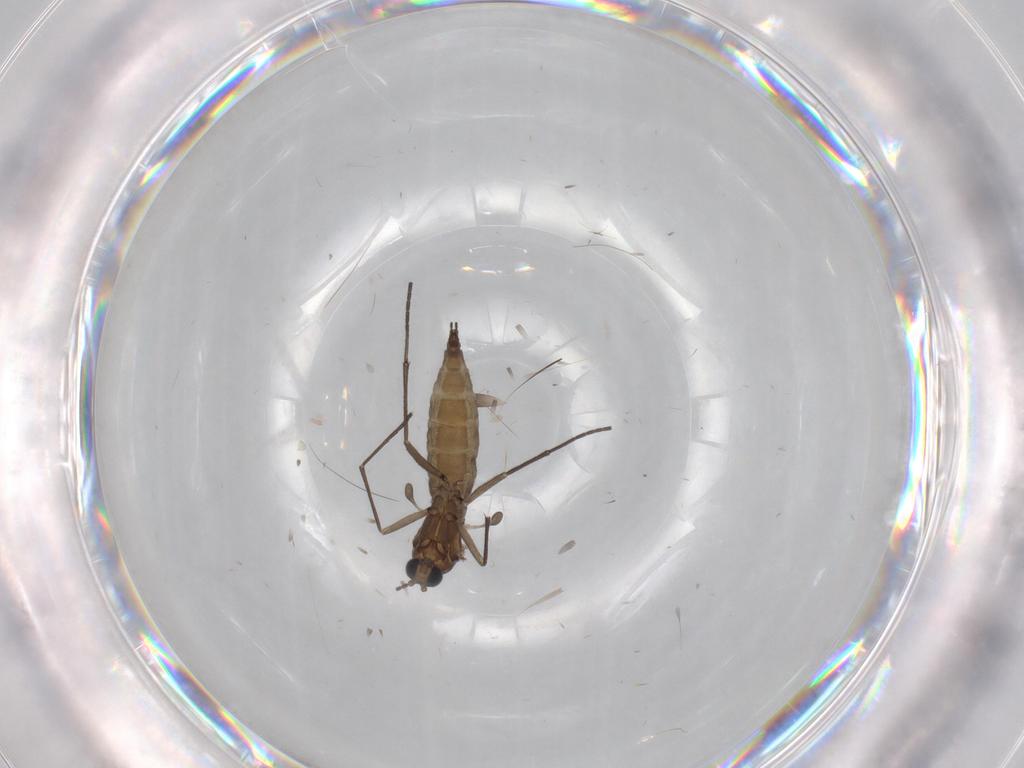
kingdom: Animalia
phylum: Arthropoda
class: Insecta
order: Diptera
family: Sciaridae
